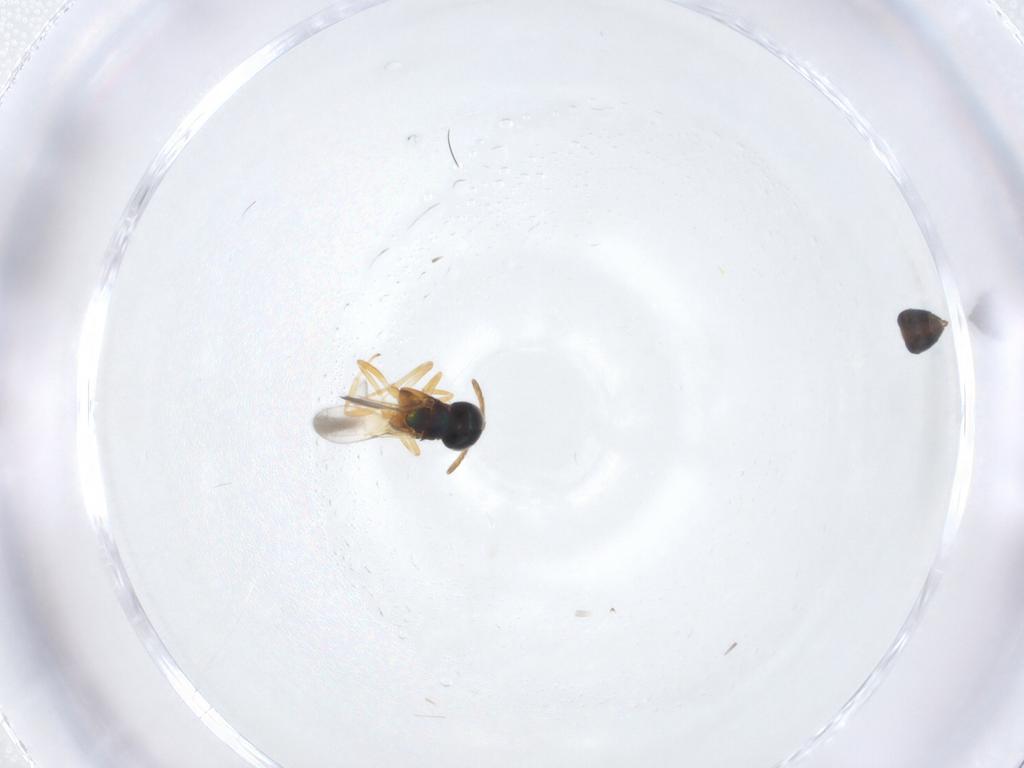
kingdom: Animalia
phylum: Arthropoda
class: Insecta
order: Hymenoptera
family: Encyrtidae
